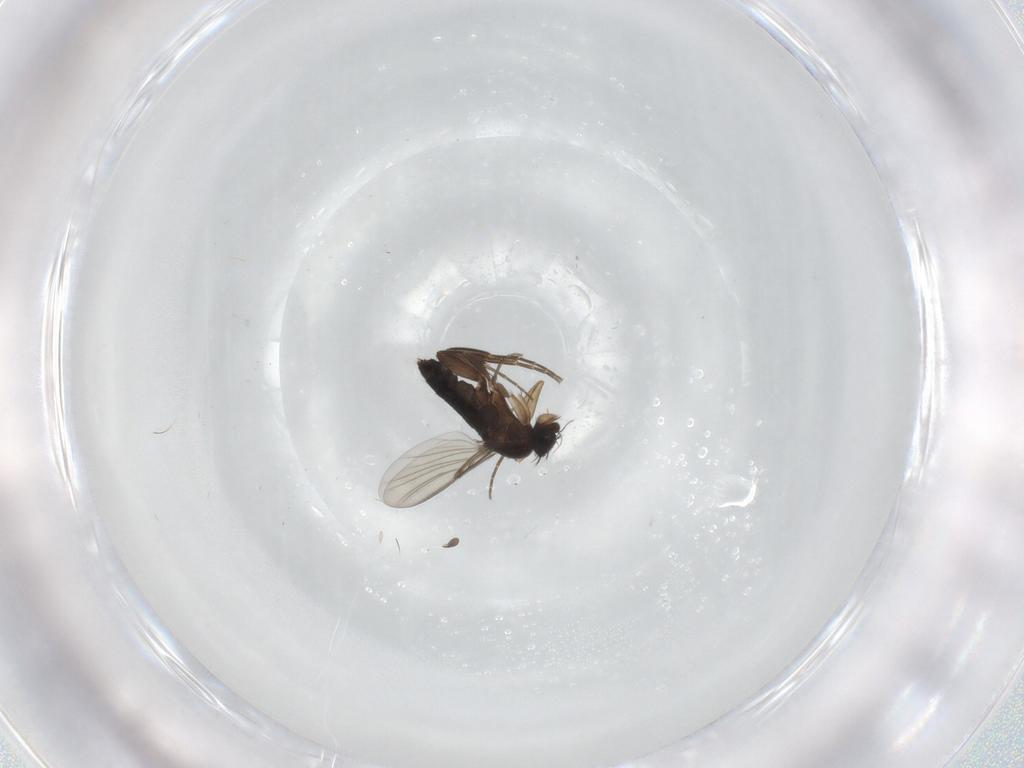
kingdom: Animalia
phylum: Arthropoda
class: Insecta
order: Diptera
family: Phoridae
